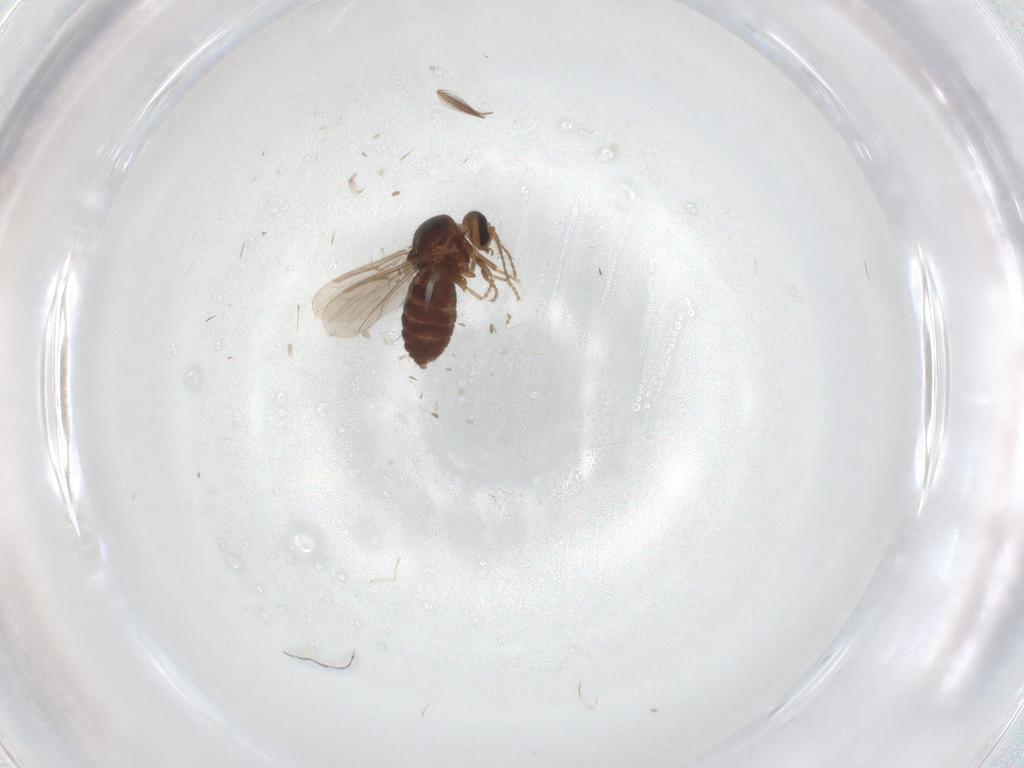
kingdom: Animalia
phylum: Arthropoda
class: Insecta
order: Diptera
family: Ceratopogonidae
